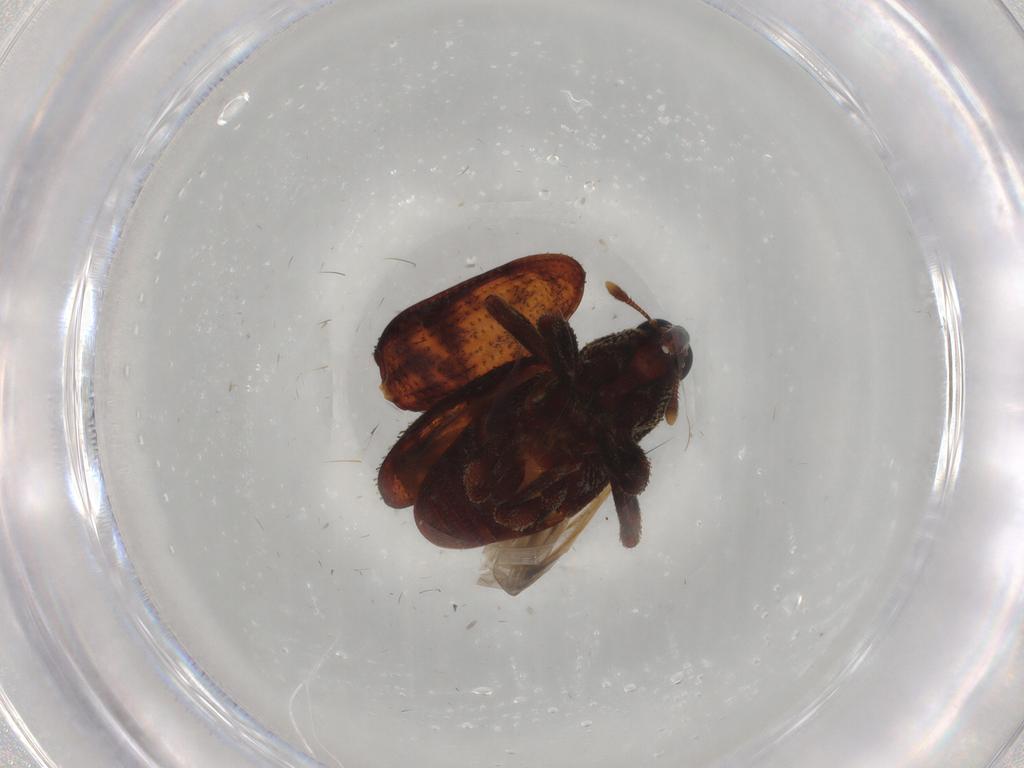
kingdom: Animalia
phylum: Arthropoda
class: Insecta
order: Coleoptera
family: Curculionidae
